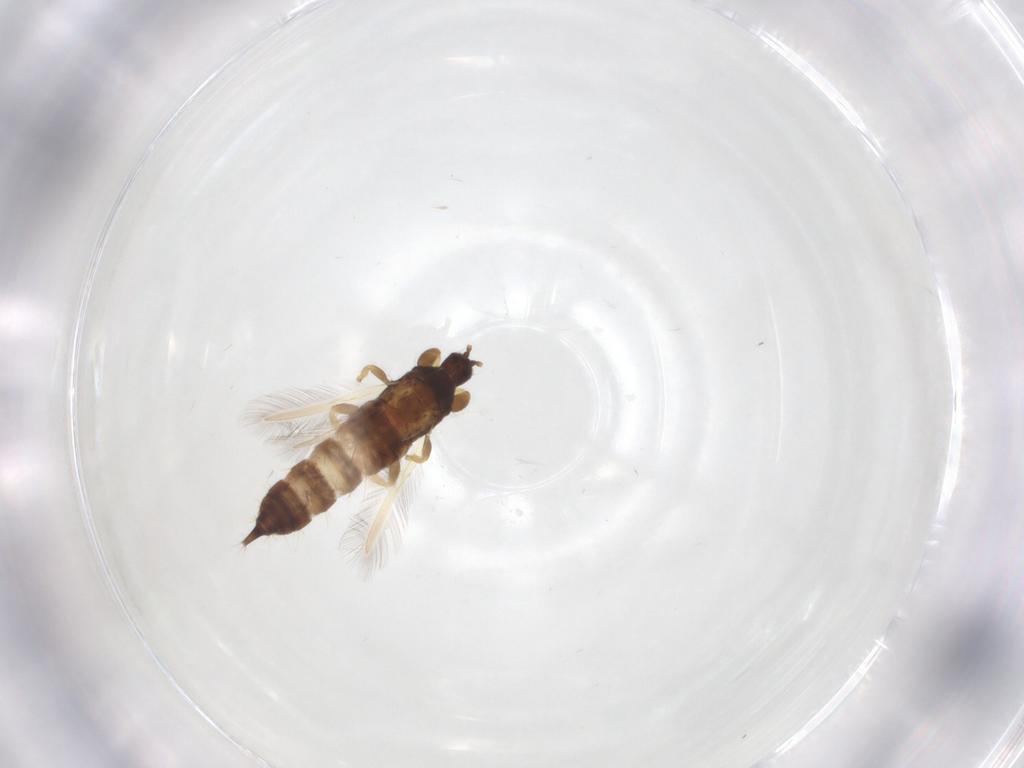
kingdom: Animalia
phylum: Arthropoda
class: Insecta
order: Thysanoptera
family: Phlaeothripidae
